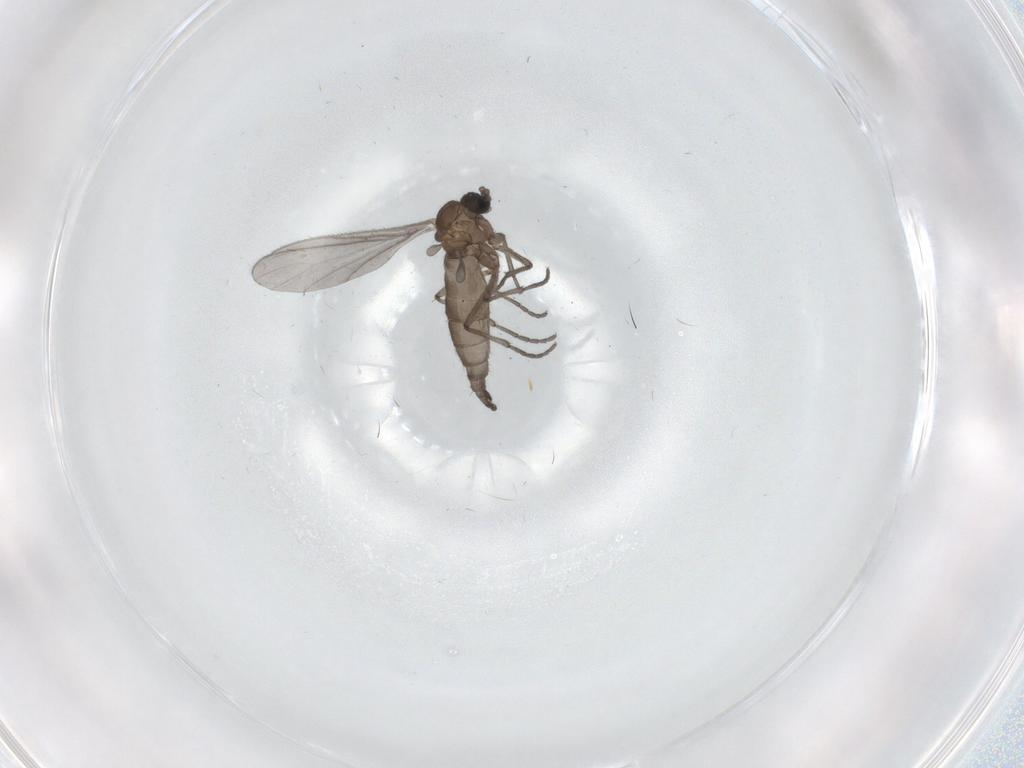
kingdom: Animalia
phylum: Arthropoda
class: Insecta
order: Diptera
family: Sciaridae
